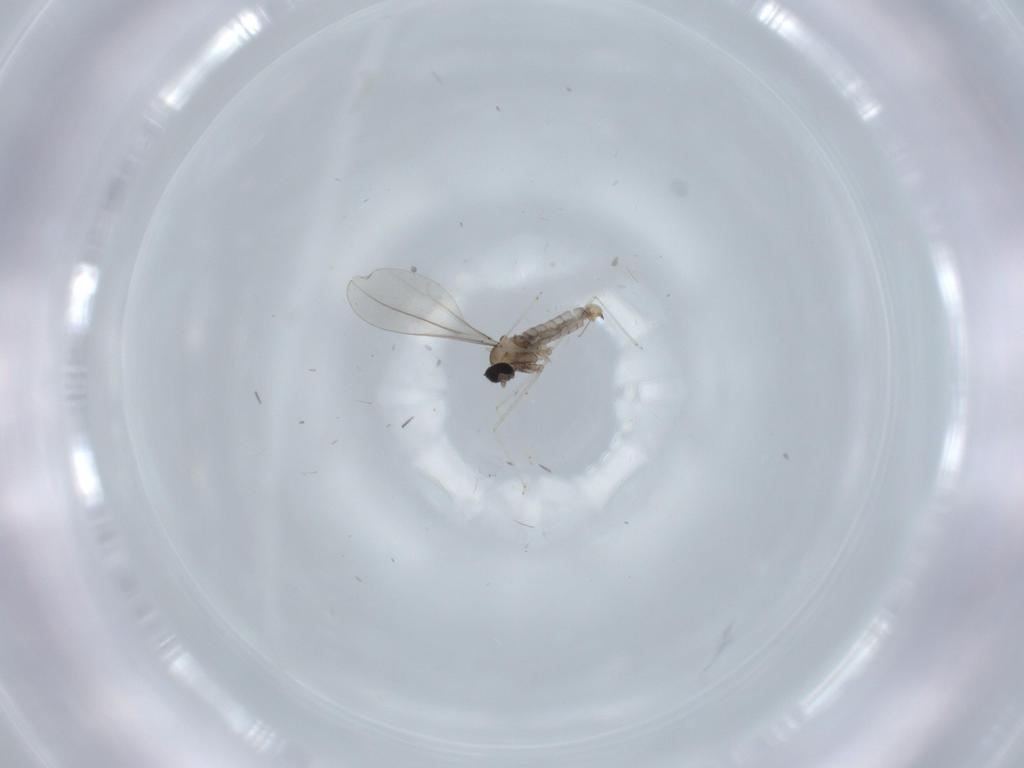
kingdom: Animalia
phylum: Arthropoda
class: Insecta
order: Diptera
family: Cecidomyiidae
